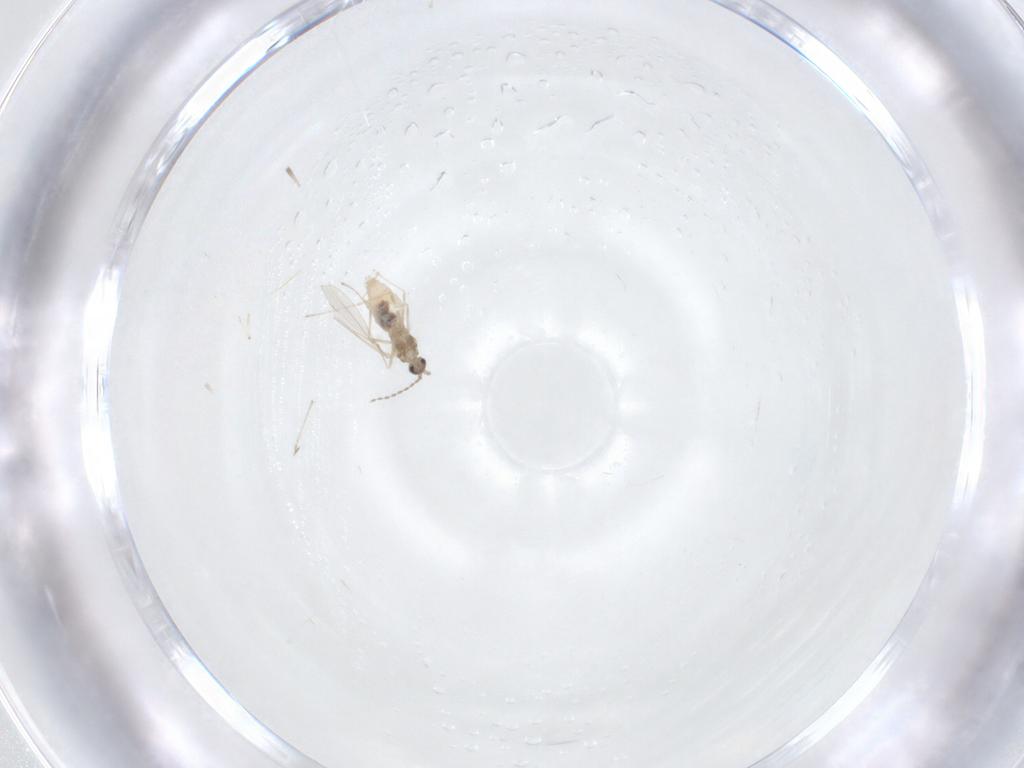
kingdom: Animalia
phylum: Arthropoda
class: Insecta
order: Diptera
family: Cecidomyiidae
